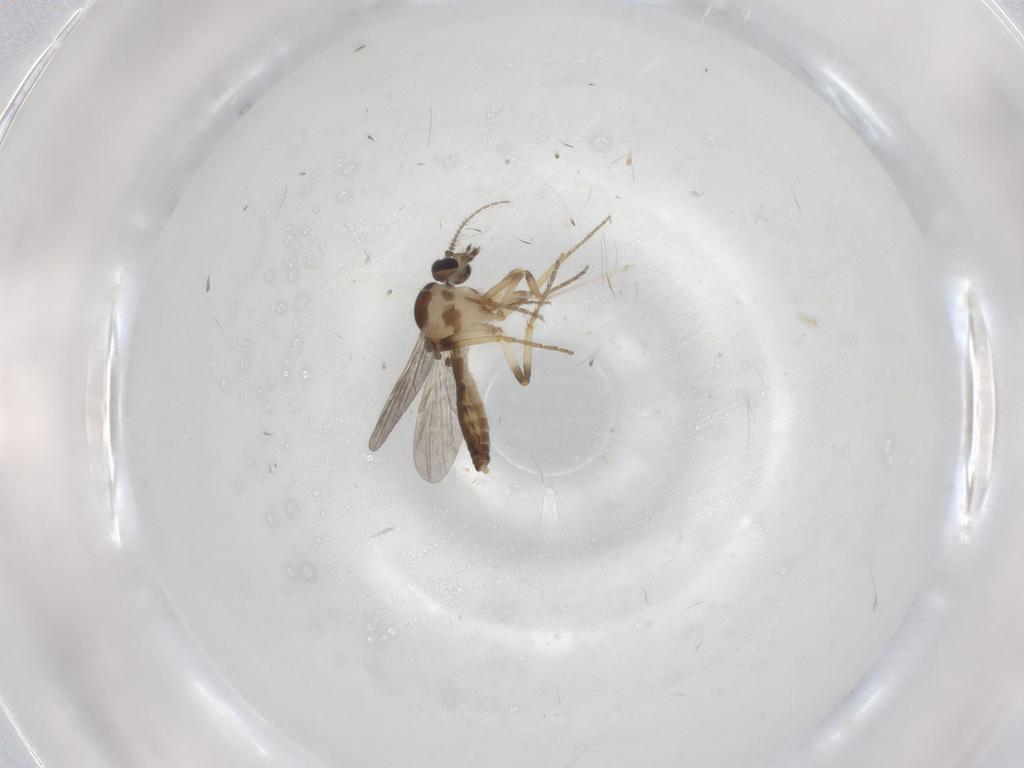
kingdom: Animalia
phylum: Arthropoda
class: Insecta
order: Diptera
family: Ceratopogonidae
